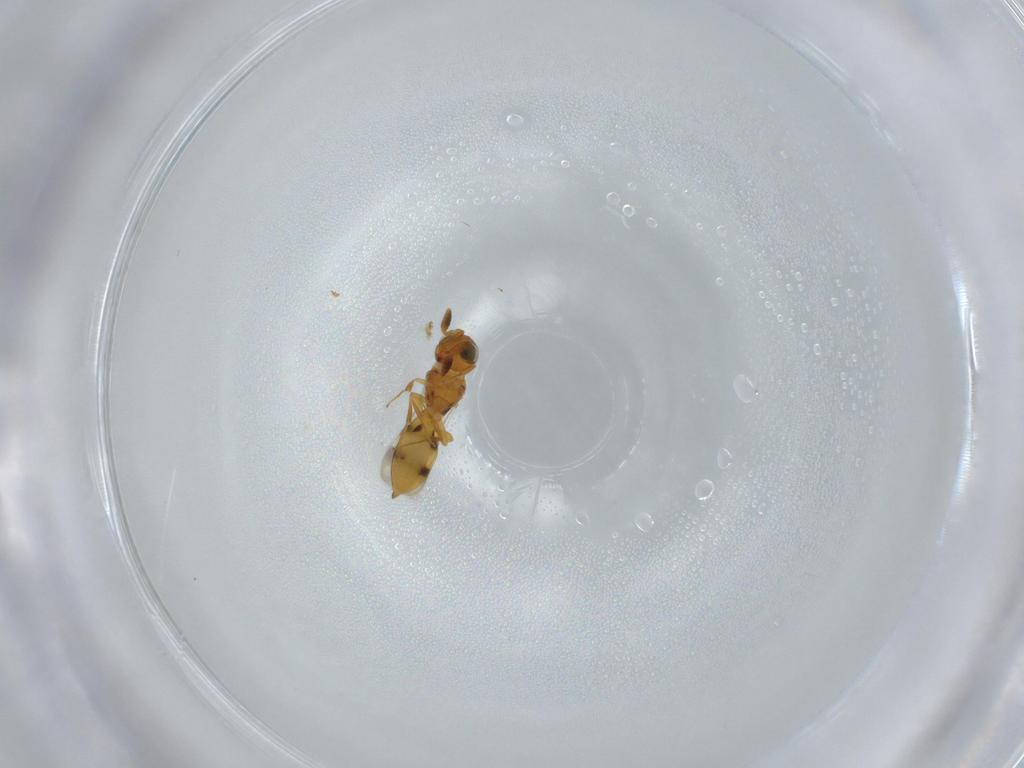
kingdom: Animalia
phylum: Arthropoda
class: Insecta
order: Hymenoptera
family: Scelionidae
